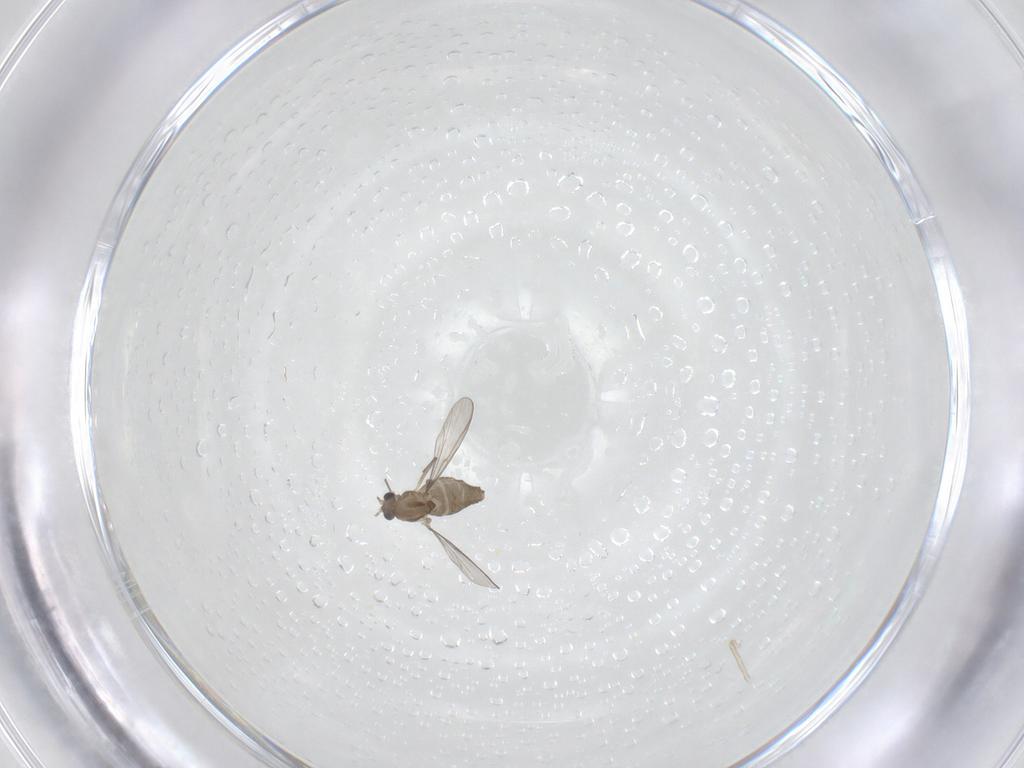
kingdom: Animalia
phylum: Arthropoda
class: Insecta
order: Diptera
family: Chironomidae
